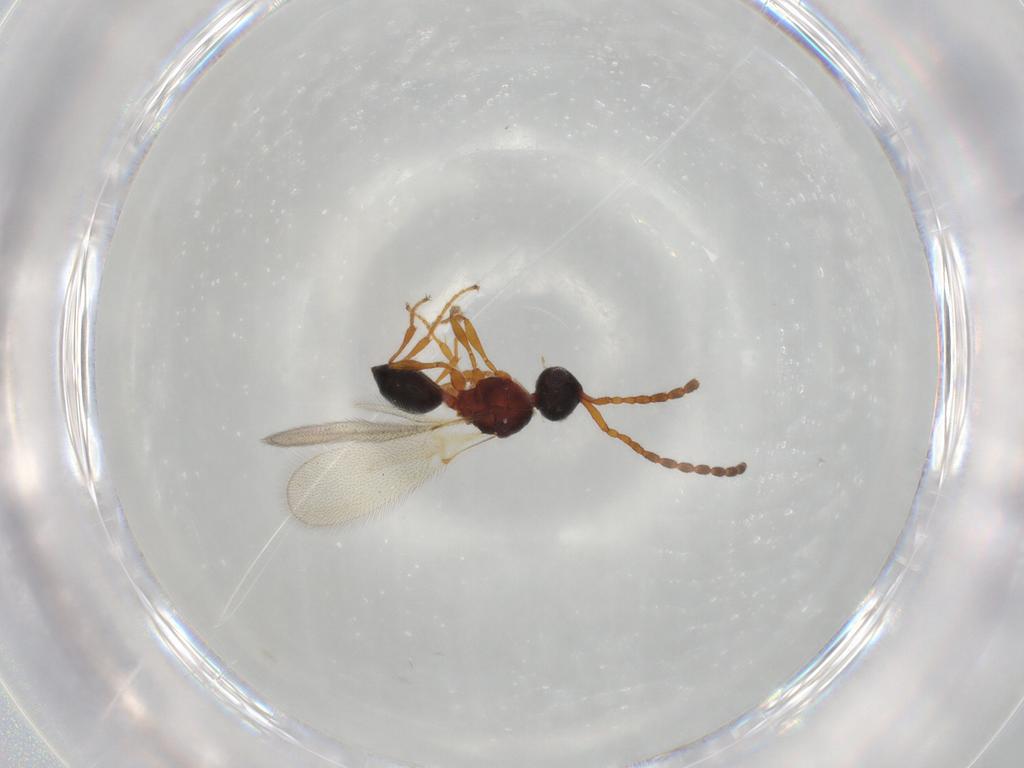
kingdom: Animalia
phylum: Arthropoda
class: Insecta
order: Hymenoptera
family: Diapriidae
